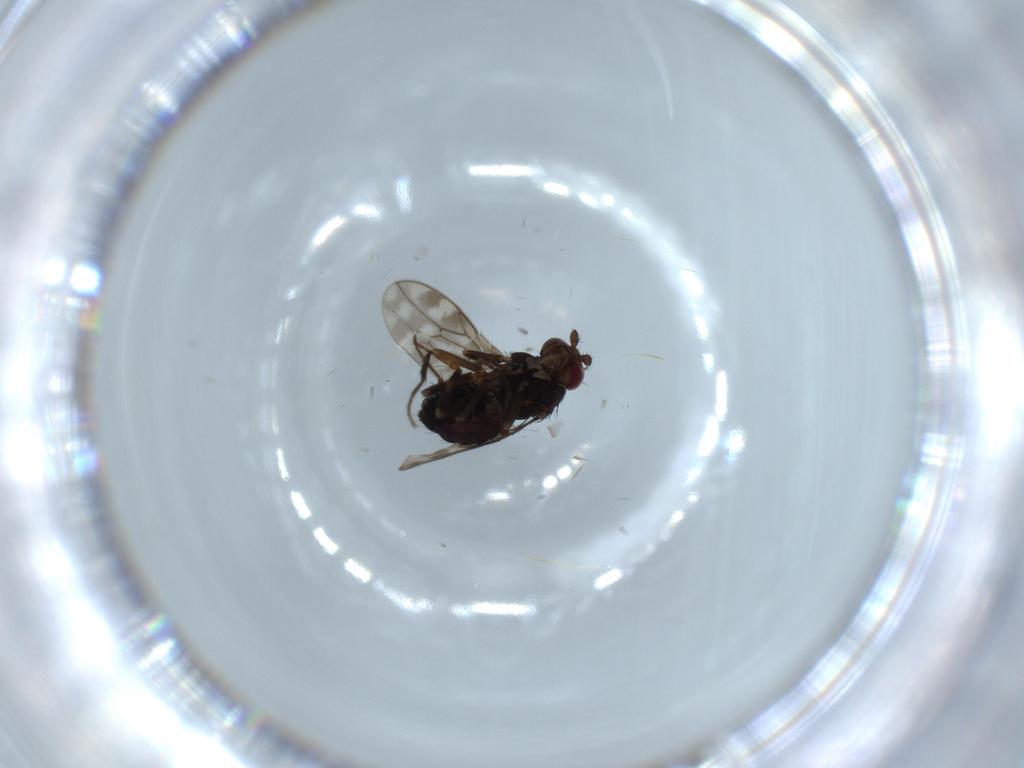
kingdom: Animalia
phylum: Arthropoda
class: Insecta
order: Diptera
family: Sphaeroceridae
